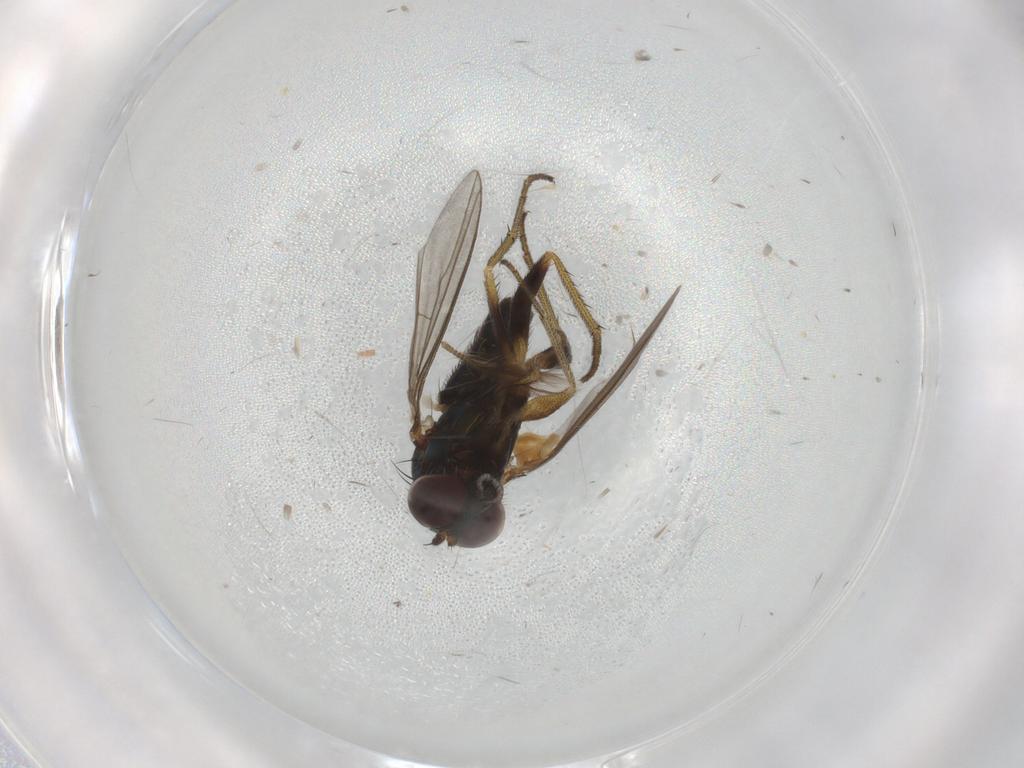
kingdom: Animalia
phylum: Arthropoda
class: Insecta
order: Diptera
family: Dolichopodidae
